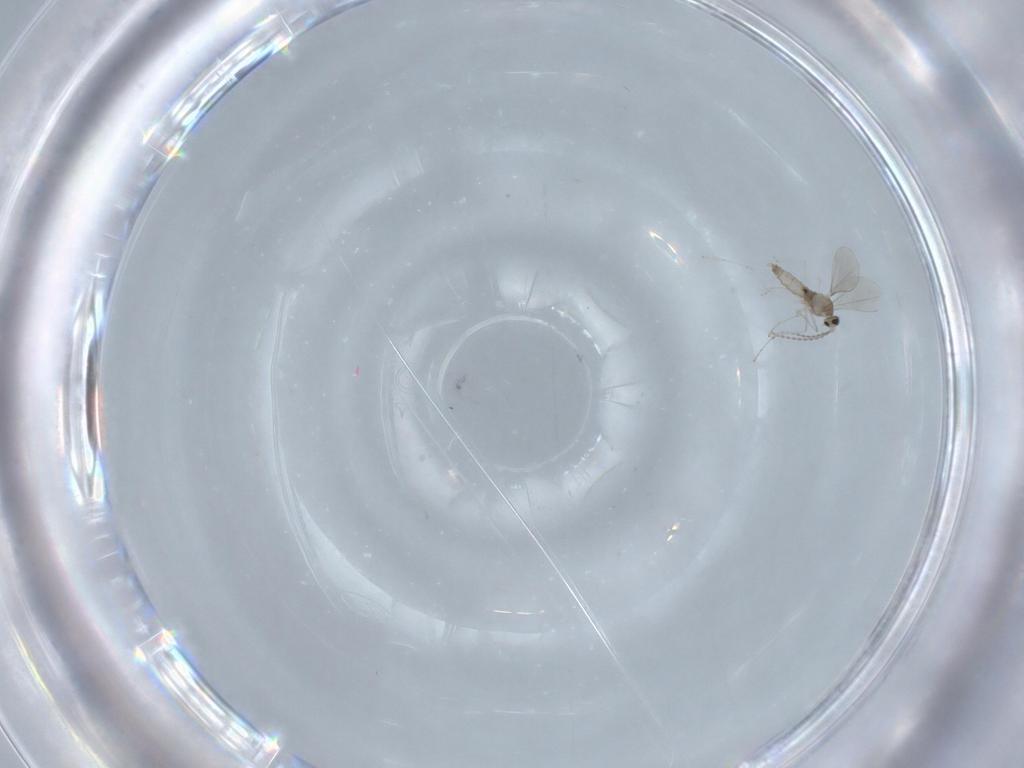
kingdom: Animalia
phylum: Arthropoda
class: Insecta
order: Diptera
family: Cecidomyiidae
